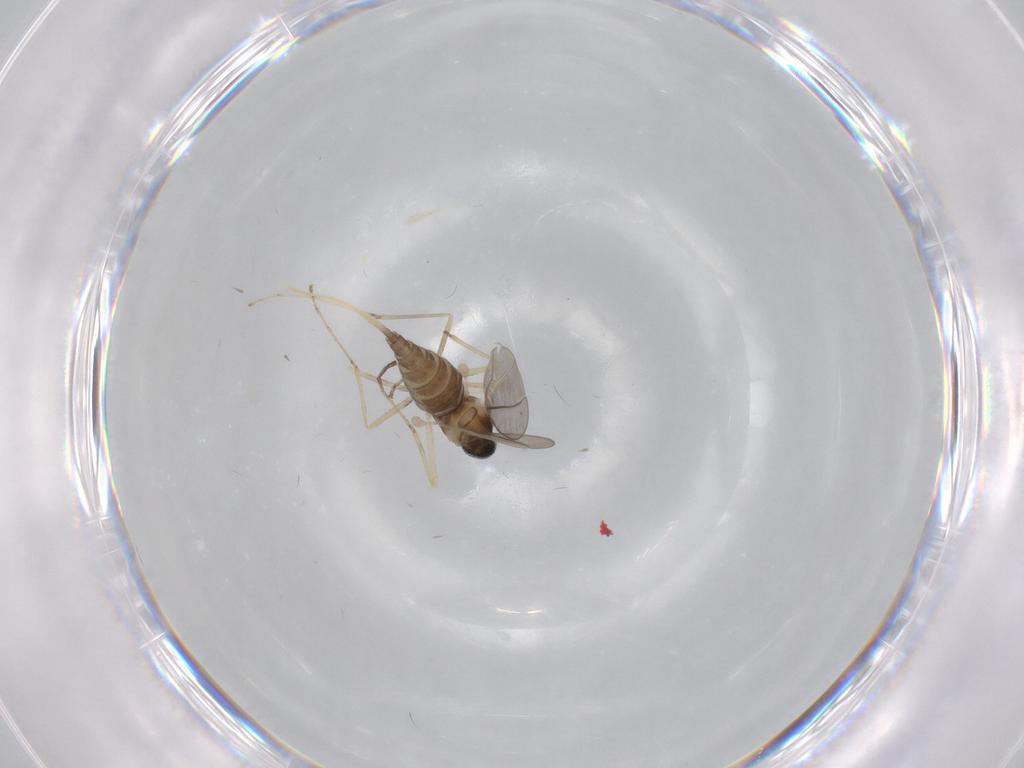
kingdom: Animalia
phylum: Arthropoda
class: Insecta
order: Diptera
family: Cecidomyiidae
